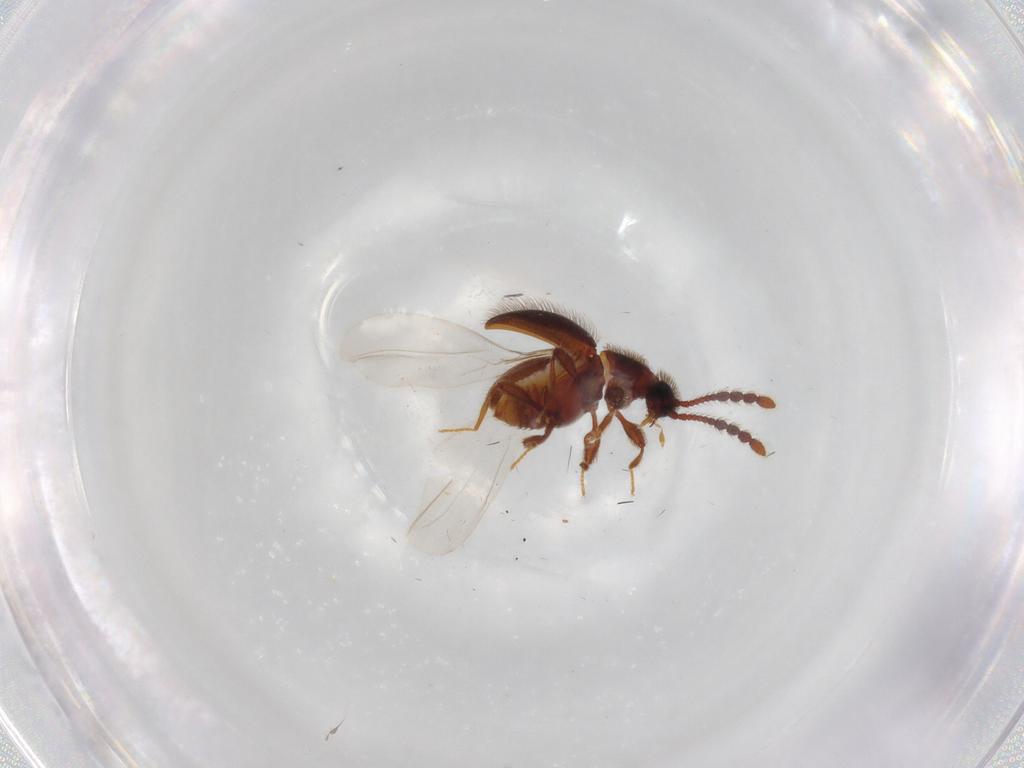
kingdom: Animalia
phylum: Arthropoda
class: Insecta
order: Coleoptera
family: Staphylinidae
